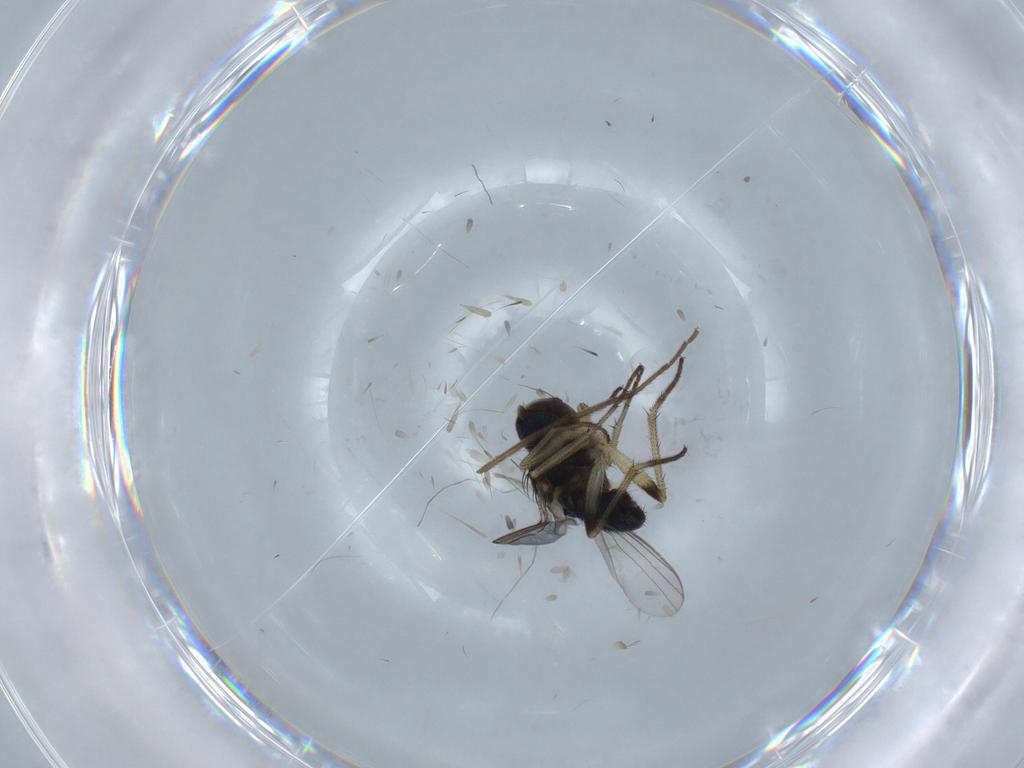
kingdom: Animalia
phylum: Arthropoda
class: Insecta
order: Diptera
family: Dolichopodidae
